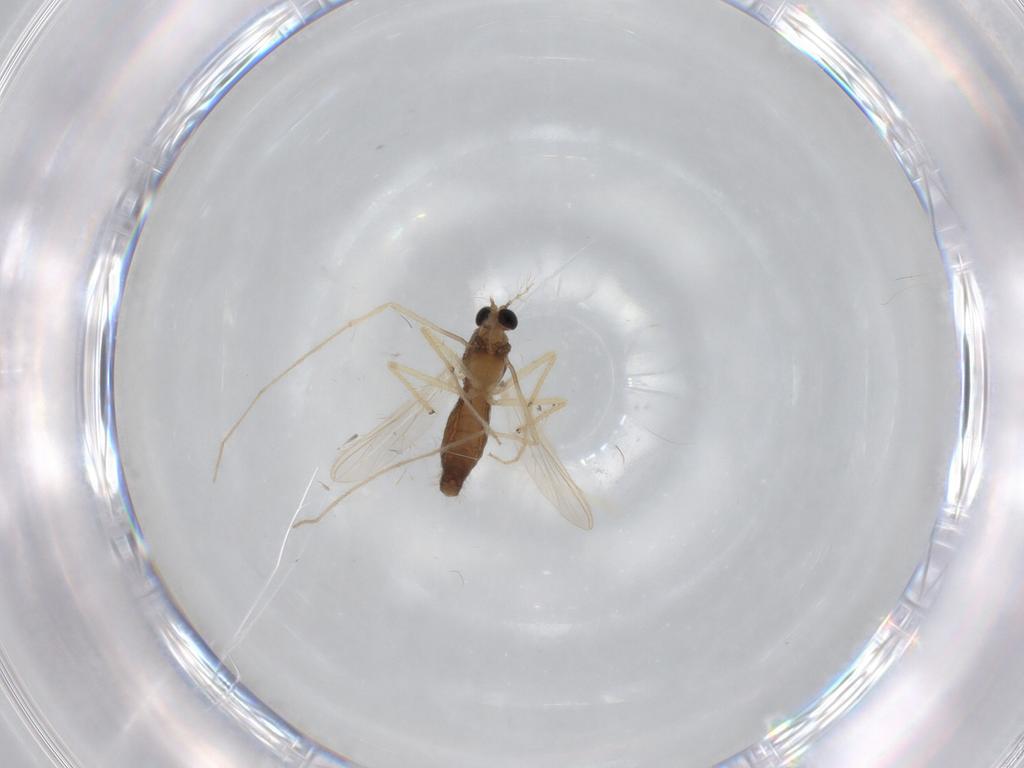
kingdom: Animalia
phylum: Arthropoda
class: Insecta
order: Diptera
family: Chironomidae
